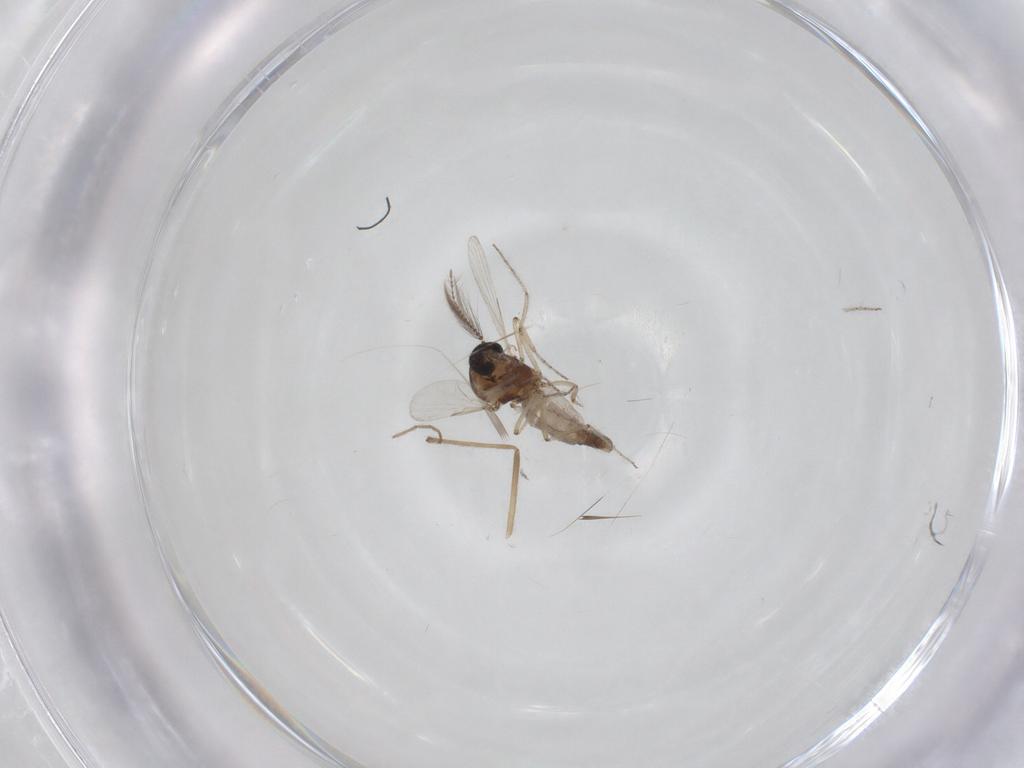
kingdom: Animalia
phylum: Arthropoda
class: Insecta
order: Diptera
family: Ceratopogonidae
